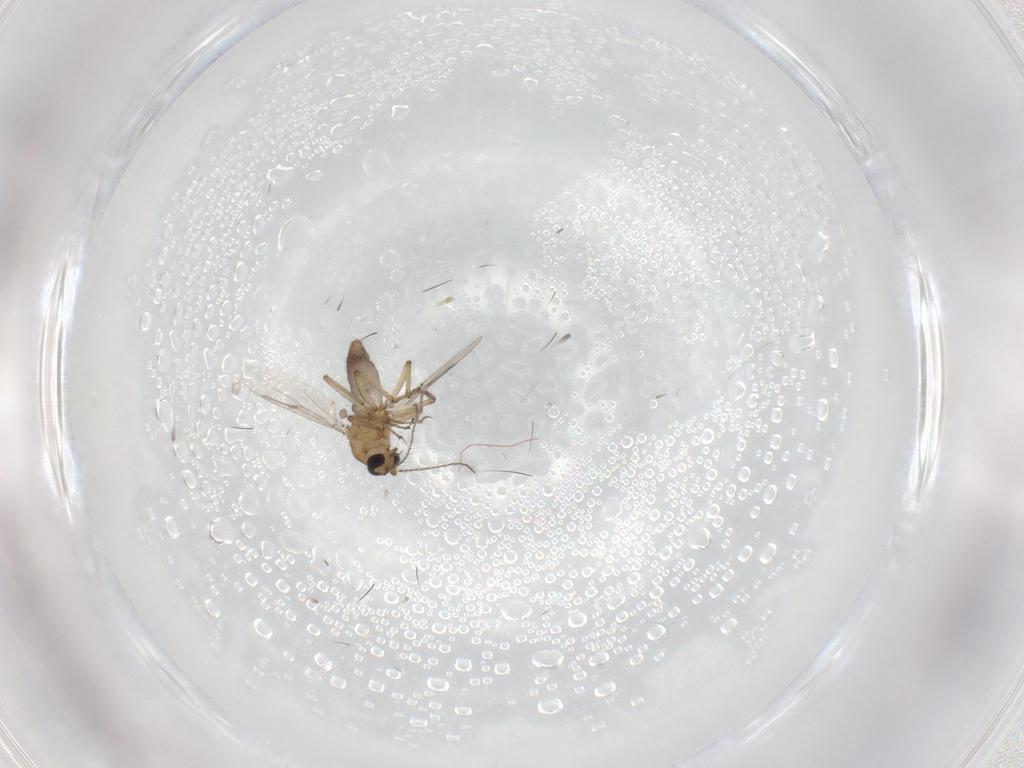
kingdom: Animalia
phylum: Arthropoda
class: Insecta
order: Diptera
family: Ceratopogonidae
